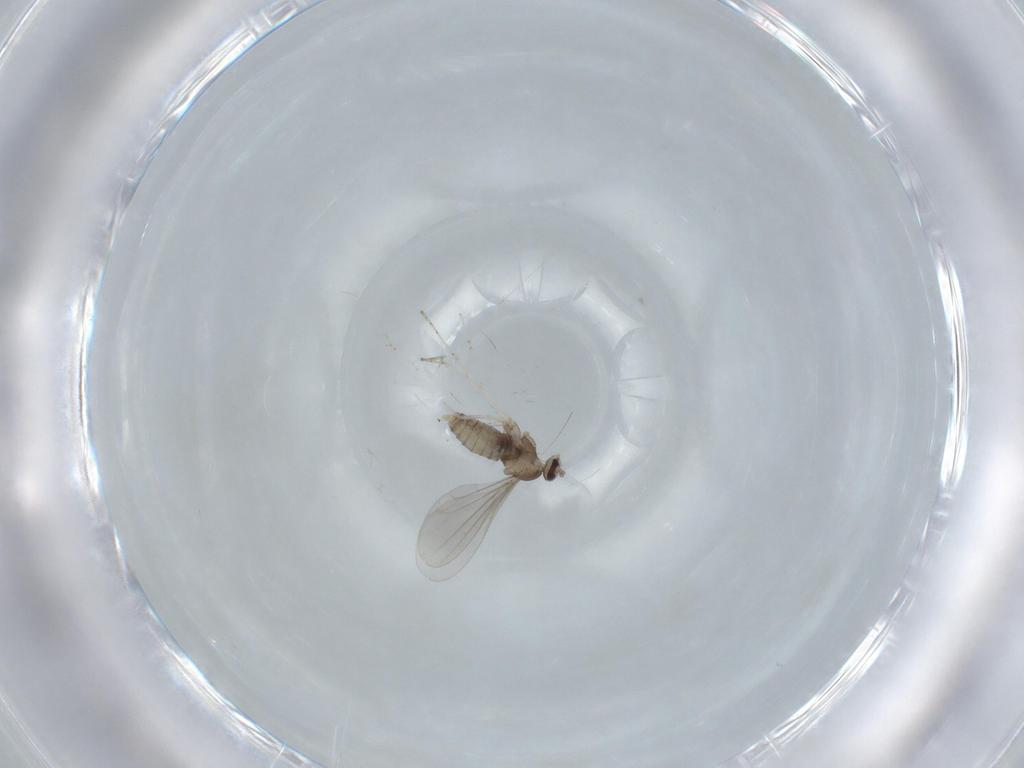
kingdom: Animalia
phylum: Arthropoda
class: Insecta
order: Diptera
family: Cecidomyiidae
